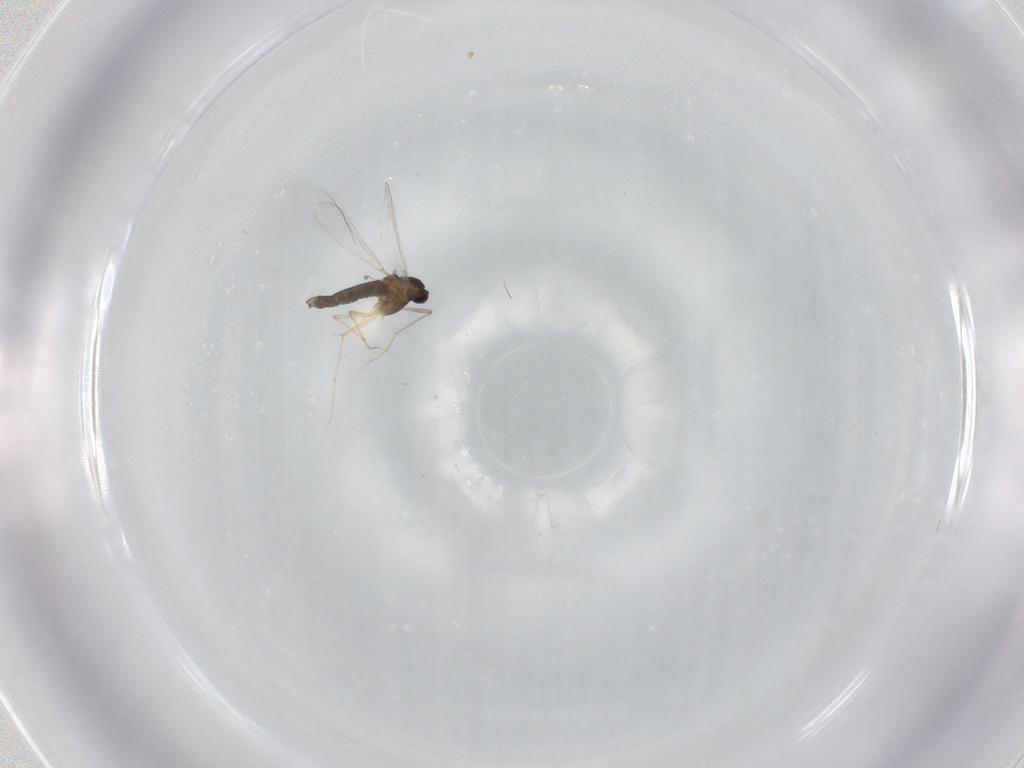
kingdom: Animalia
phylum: Arthropoda
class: Insecta
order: Diptera
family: Chironomidae
